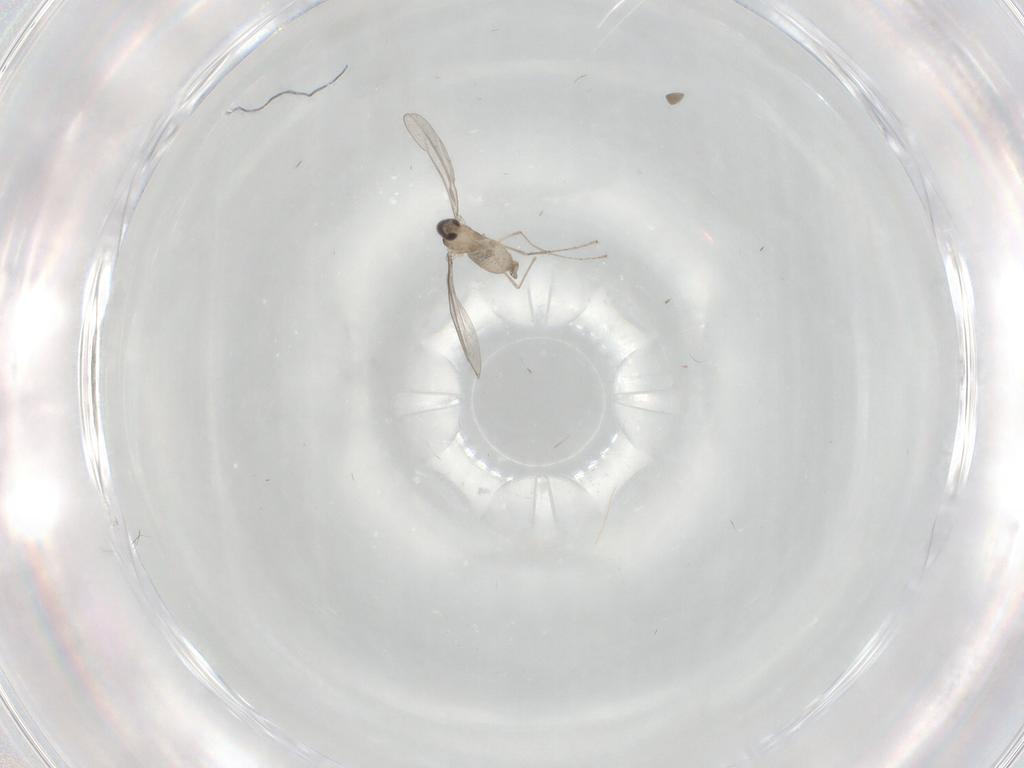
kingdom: Animalia
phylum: Arthropoda
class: Insecta
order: Diptera
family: Cecidomyiidae
